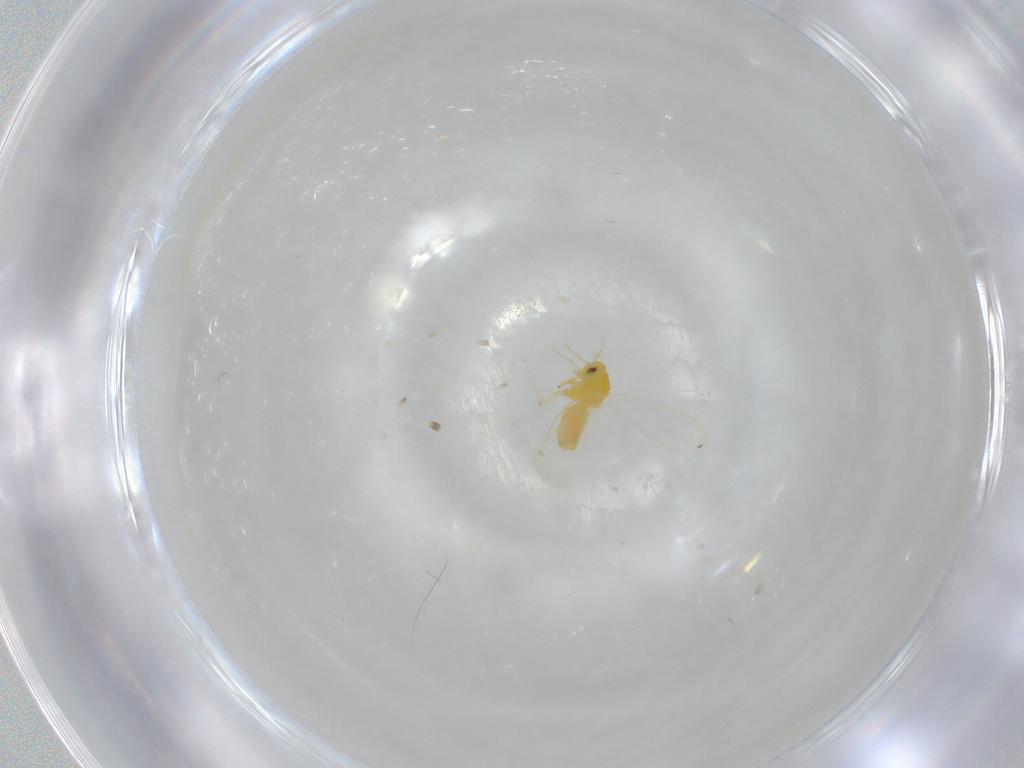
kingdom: Animalia
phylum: Arthropoda
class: Insecta
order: Hemiptera
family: Aleyrodidae
